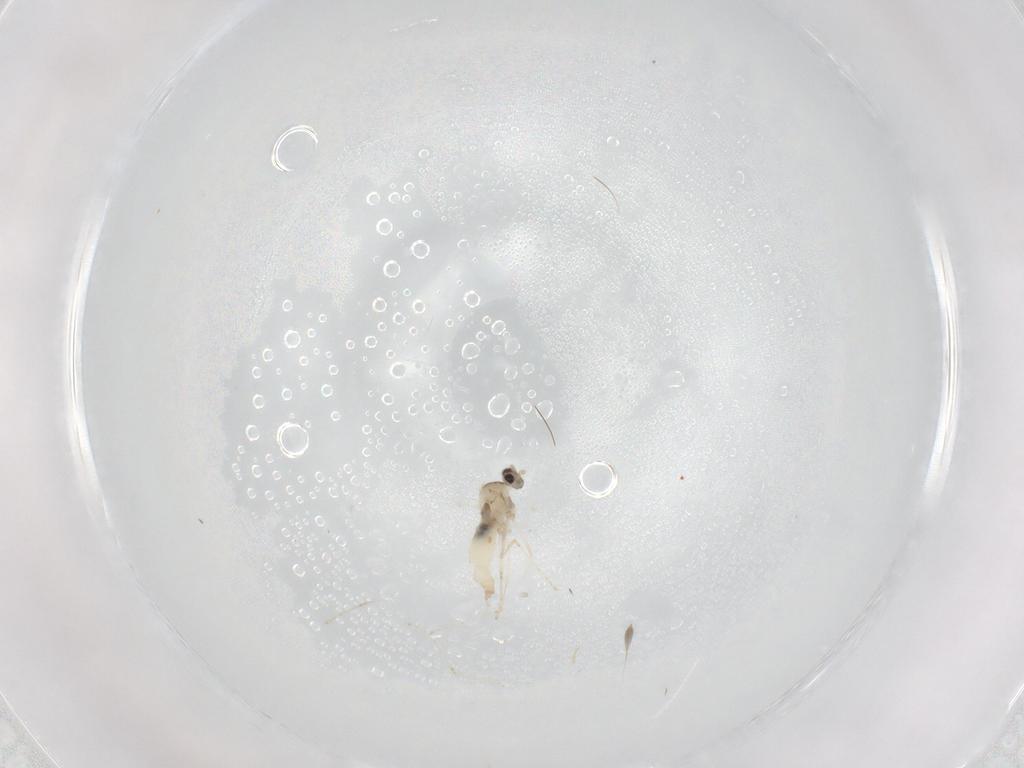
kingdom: Animalia
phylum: Arthropoda
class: Insecta
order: Diptera
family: Cecidomyiidae
